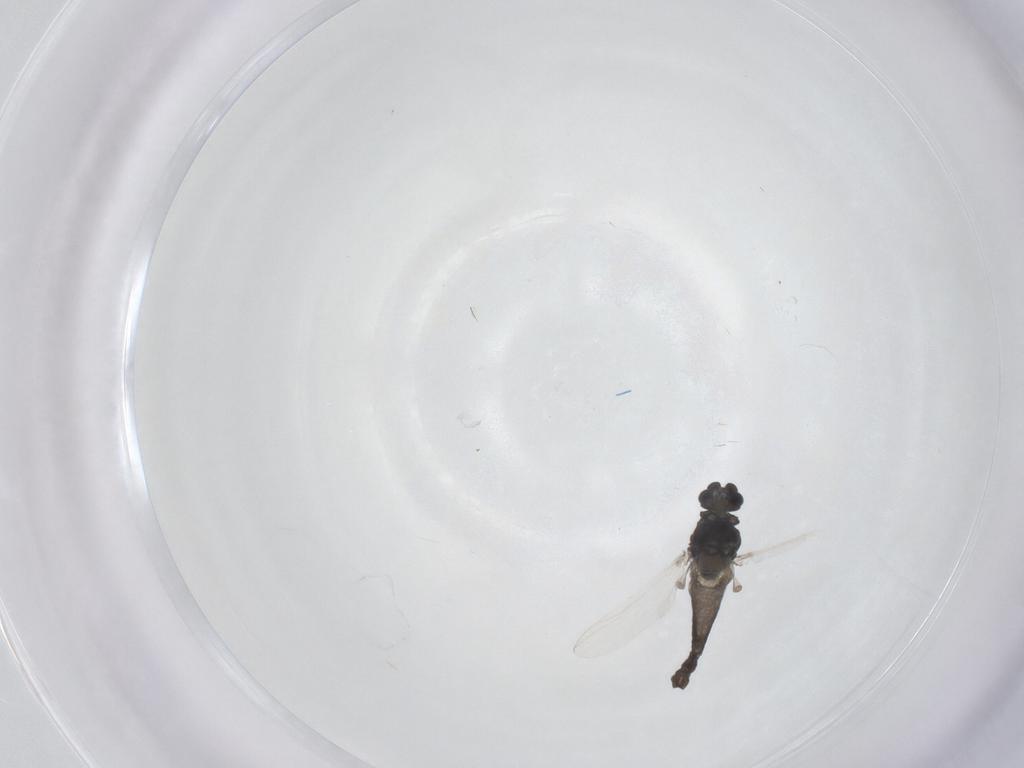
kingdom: Animalia
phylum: Arthropoda
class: Insecta
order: Diptera
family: Chironomidae
